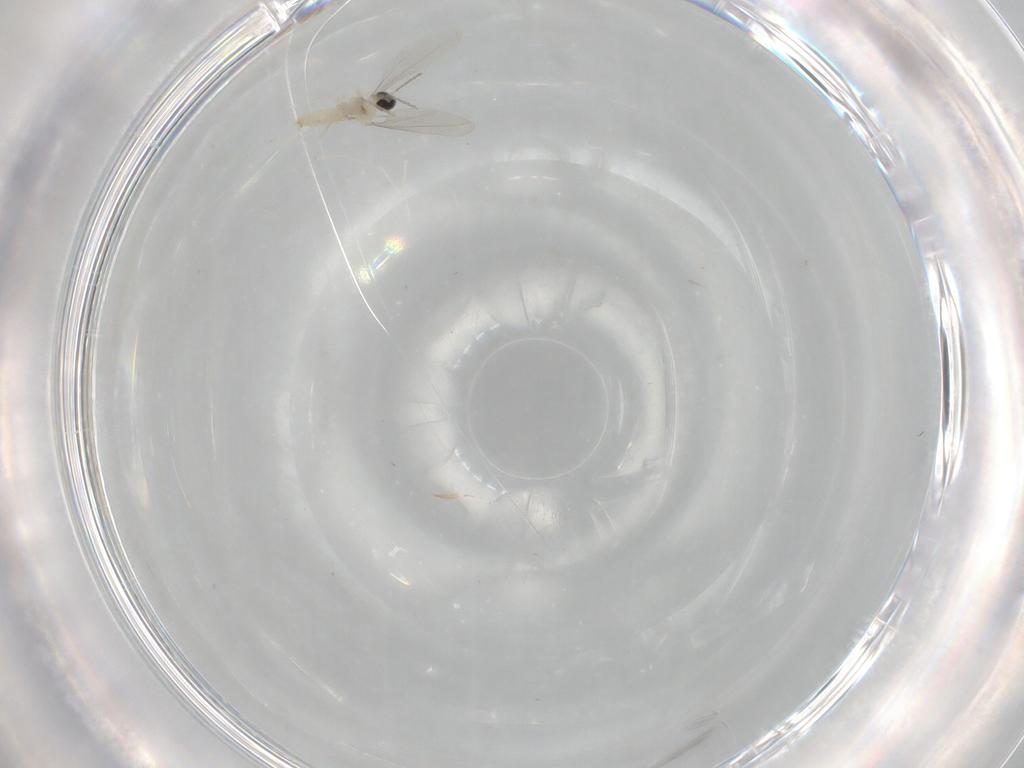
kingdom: Animalia
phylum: Arthropoda
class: Insecta
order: Diptera
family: Cecidomyiidae
